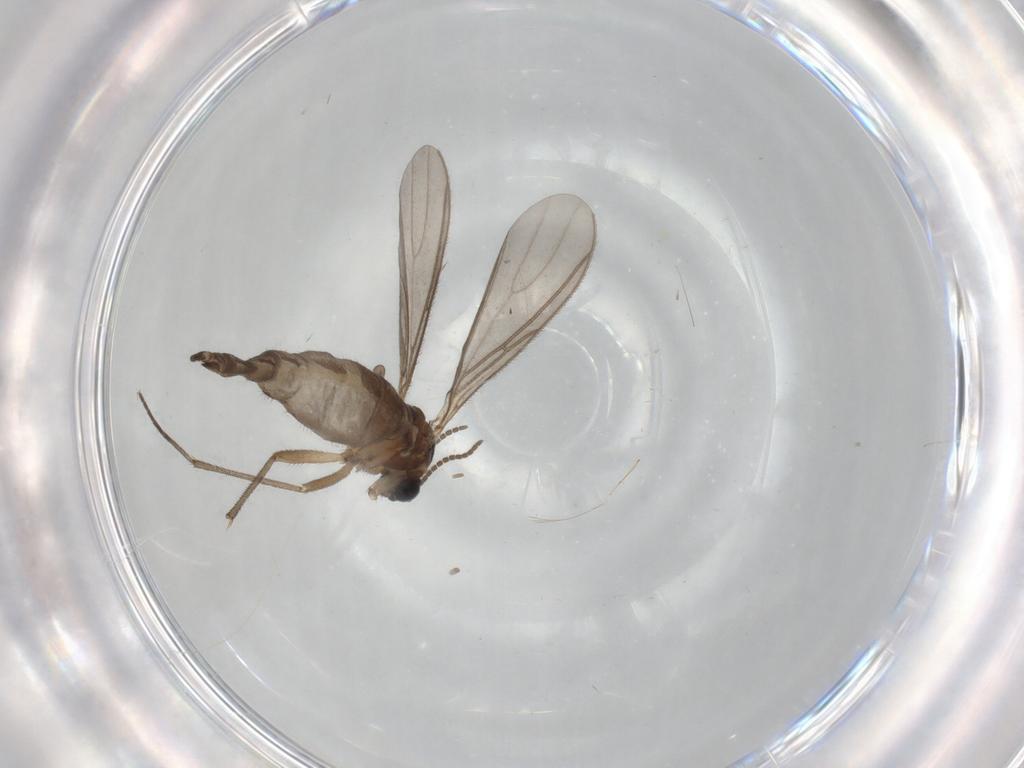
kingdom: Animalia
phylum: Arthropoda
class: Insecta
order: Diptera
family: Sciaridae
